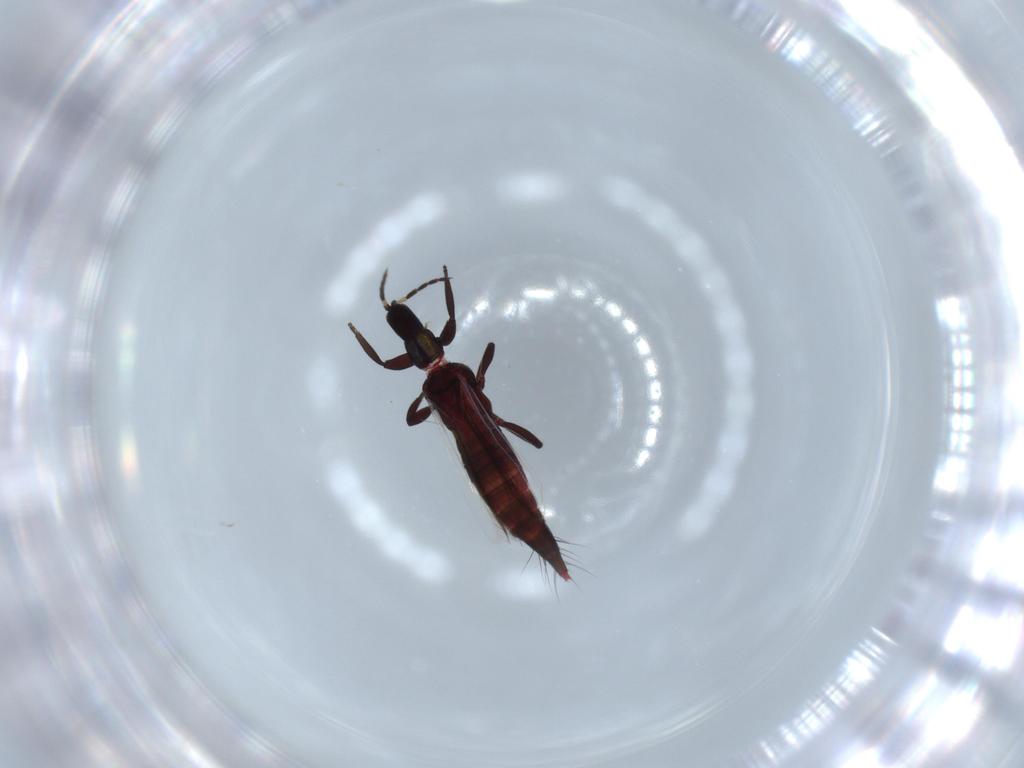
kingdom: Animalia
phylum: Arthropoda
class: Insecta
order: Thysanoptera
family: Aeolothripidae
